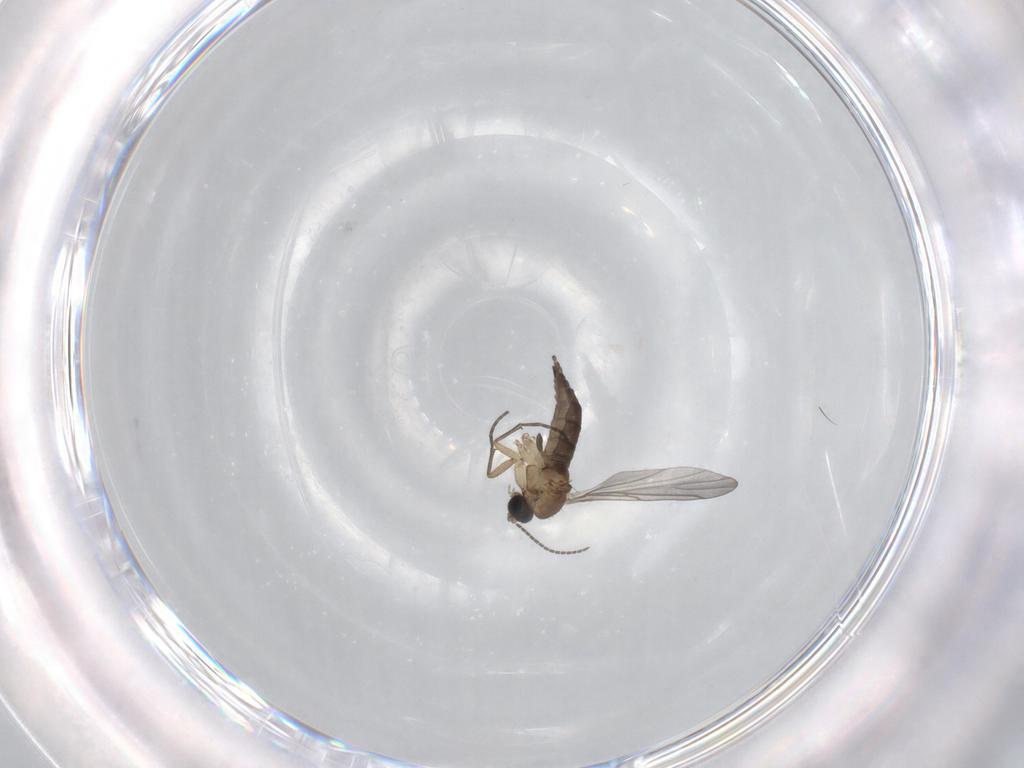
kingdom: Animalia
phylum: Arthropoda
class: Insecta
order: Diptera
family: Sciaridae
